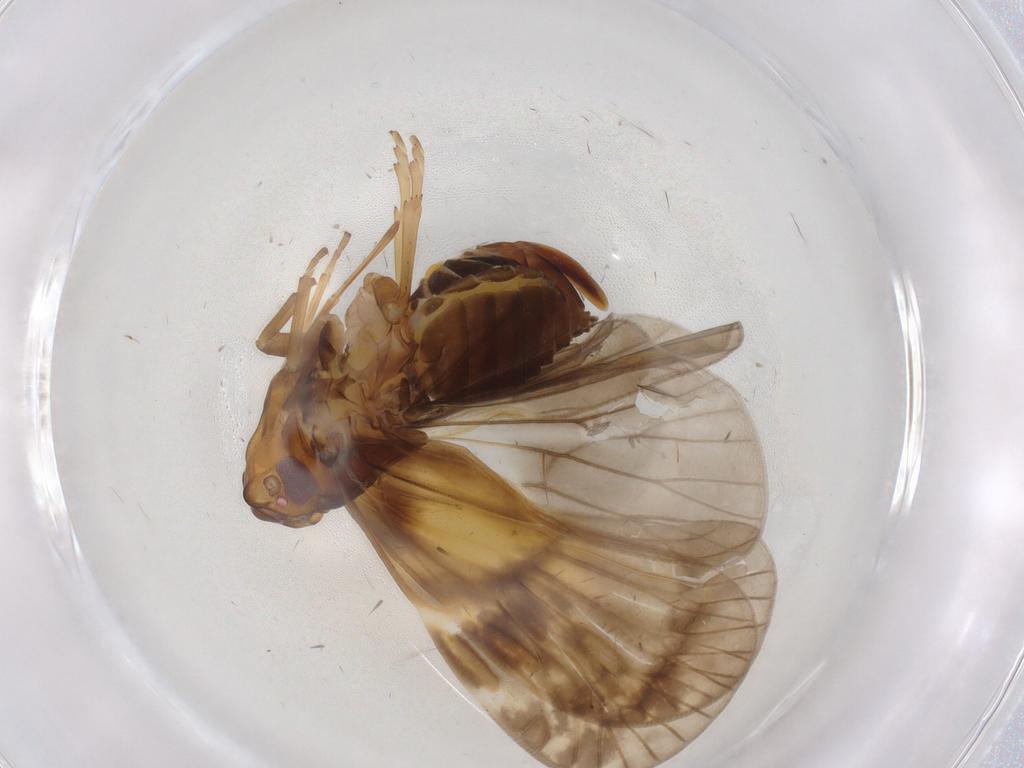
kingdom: Animalia
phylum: Arthropoda
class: Insecta
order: Hemiptera
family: Cixiidae
